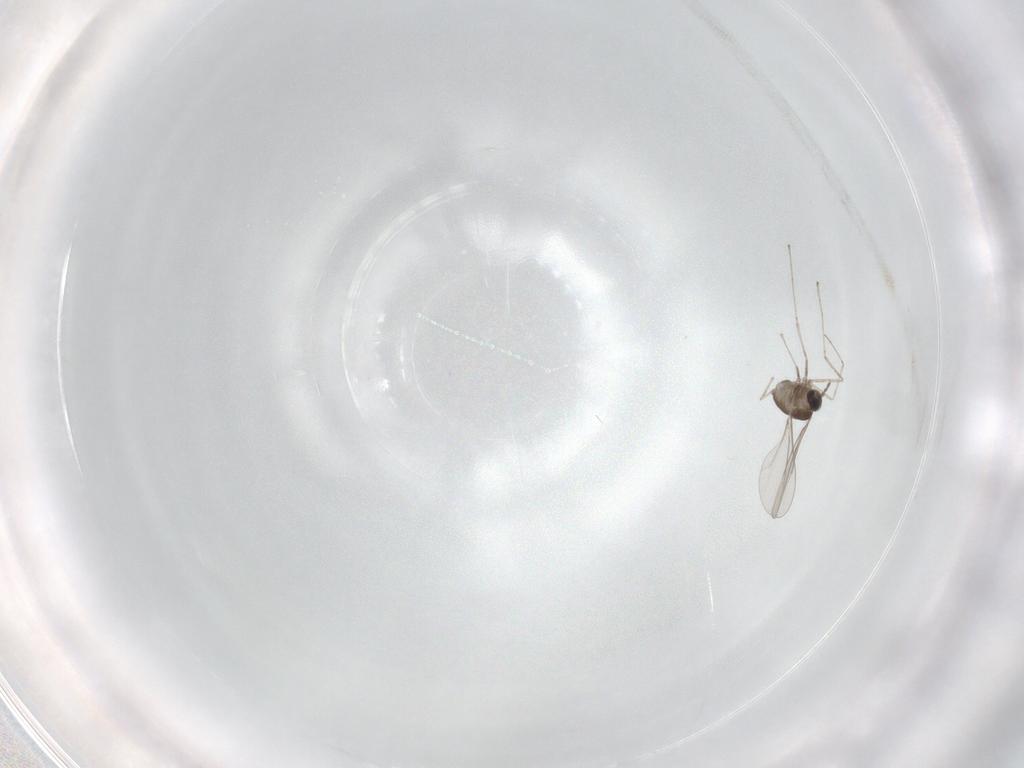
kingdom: Animalia
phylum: Arthropoda
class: Insecta
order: Diptera
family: Cecidomyiidae
